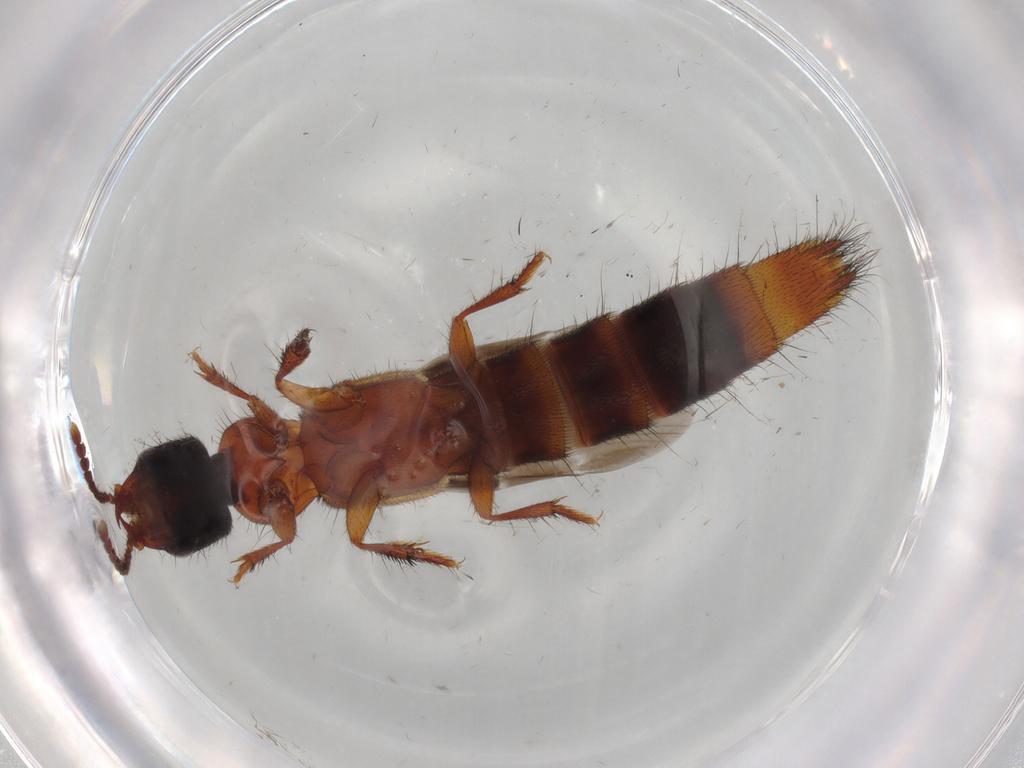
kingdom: Animalia
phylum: Arthropoda
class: Insecta
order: Coleoptera
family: Staphylinidae
